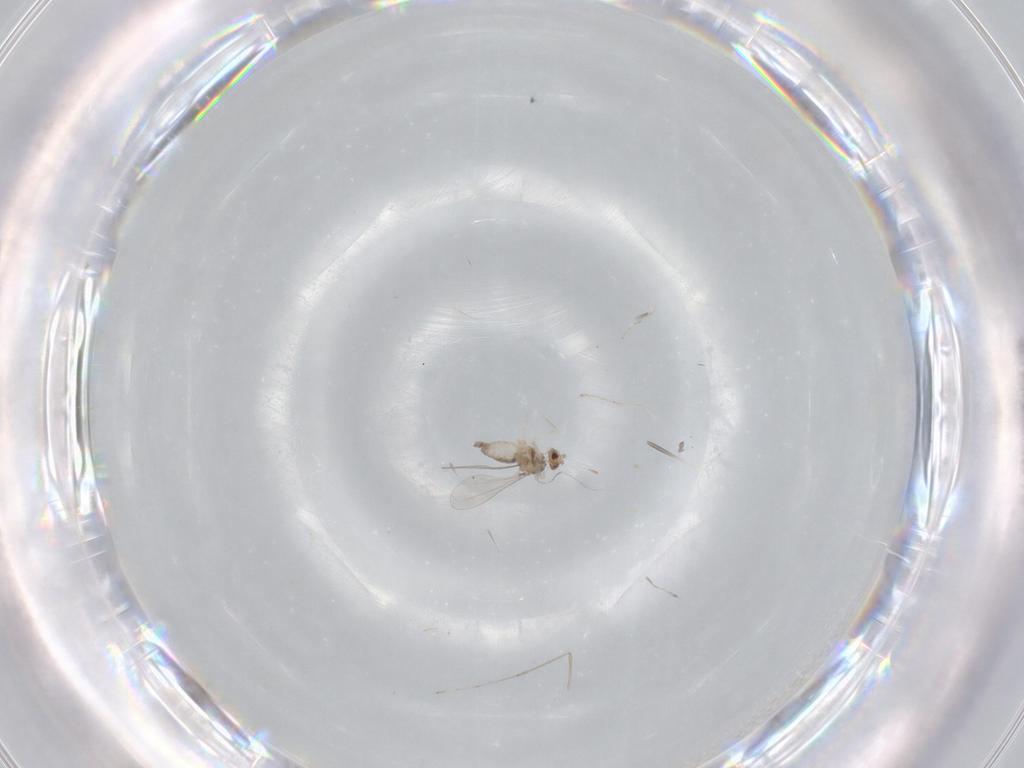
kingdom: Animalia
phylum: Arthropoda
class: Insecta
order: Diptera
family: Cecidomyiidae
